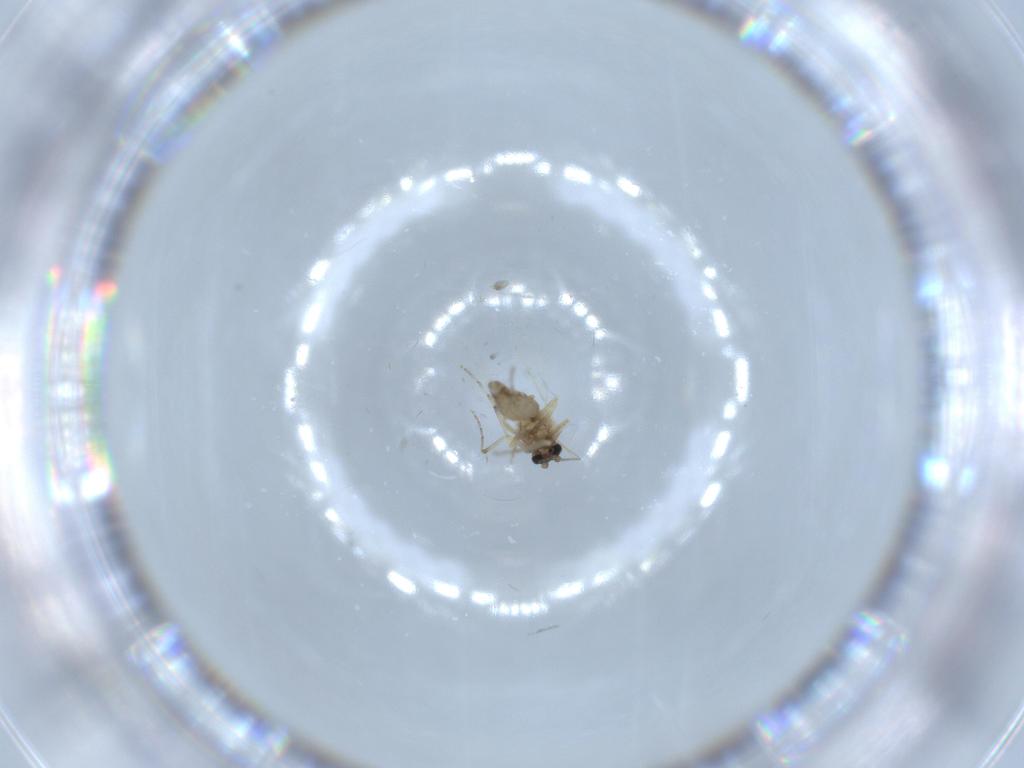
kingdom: Animalia
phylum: Arthropoda
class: Insecta
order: Diptera
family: Ceratopogonidae
